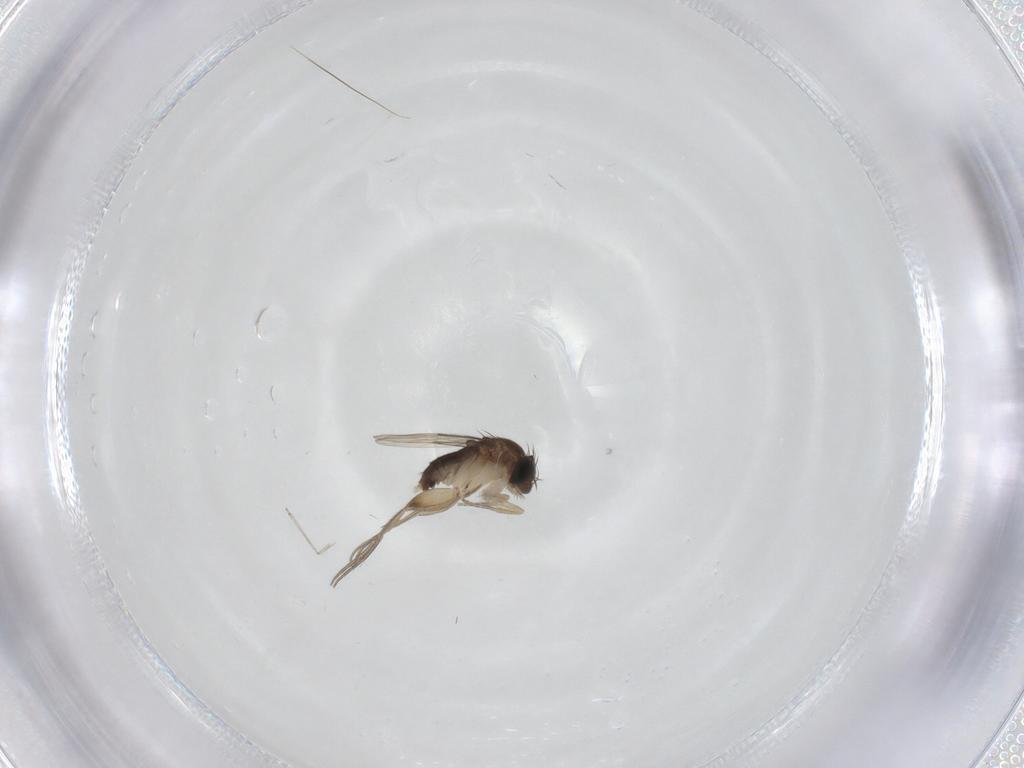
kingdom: Animalia
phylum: Arthropoda
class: Insecta
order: Diptera
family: Phoridae
